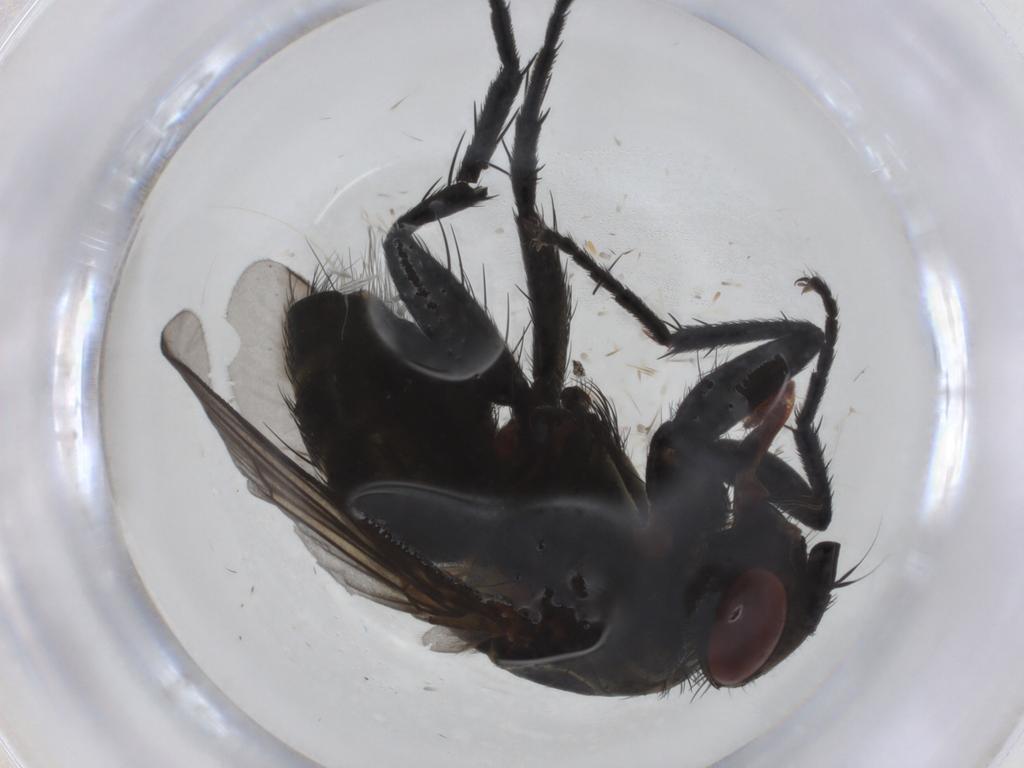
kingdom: Animalia
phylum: Arthropoda
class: Insecta
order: Diptera
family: Tachinidae
